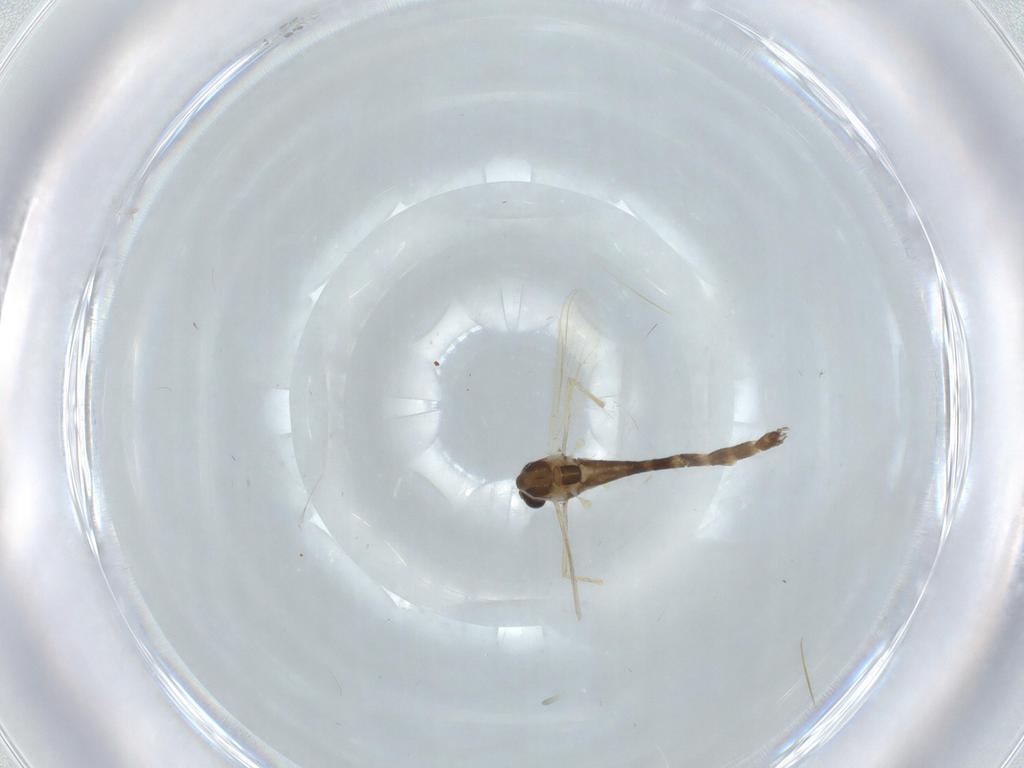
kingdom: Animalia
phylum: Arthropoda
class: Insecta
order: Diptera
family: Chironomidae
